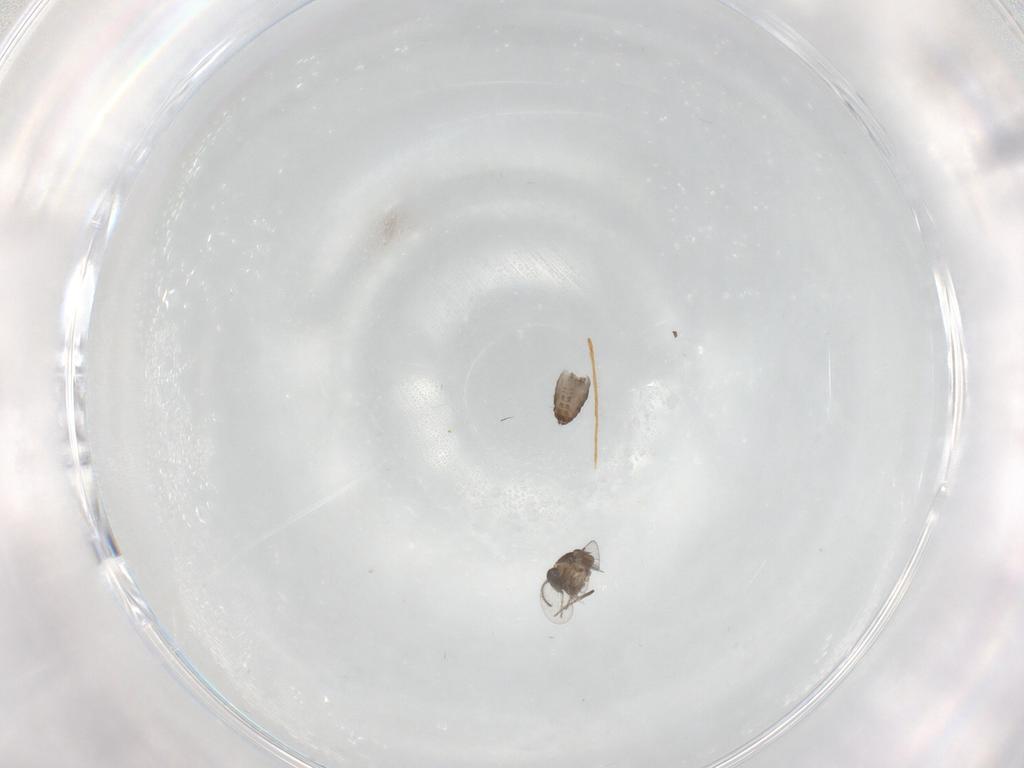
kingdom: Animalia
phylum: Arthropoda
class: Insecta
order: Diptera
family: Ceratopogonidae
